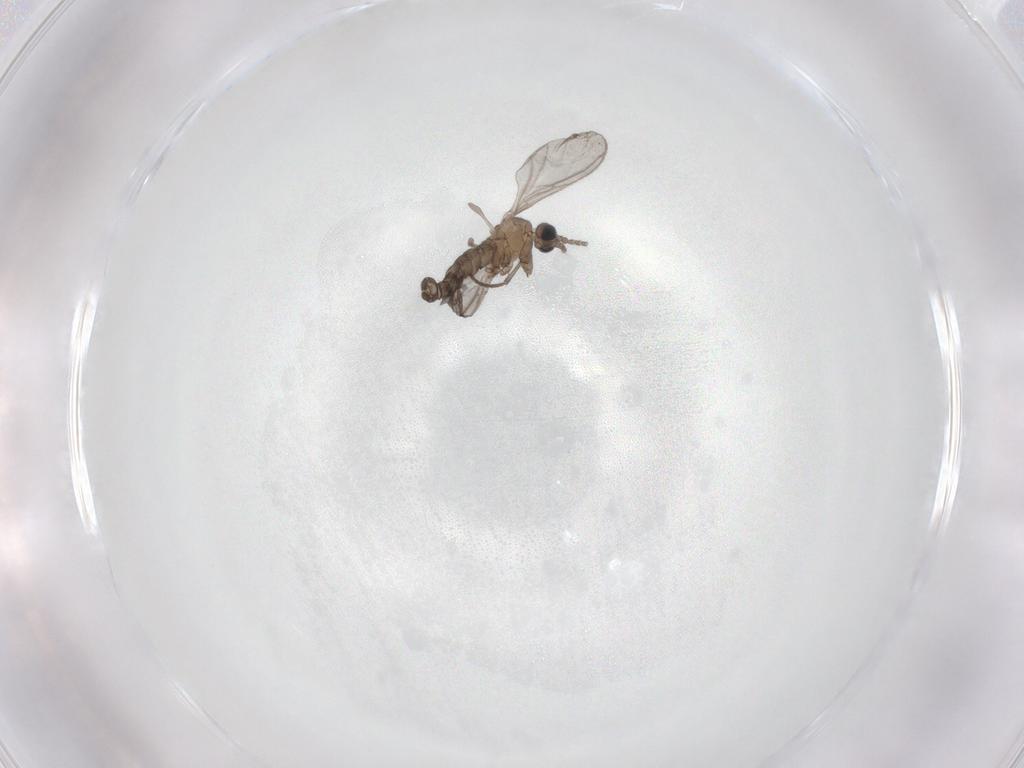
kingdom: Animalia
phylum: Arthropoda
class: Insecta
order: Diptera
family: Sciaridae
